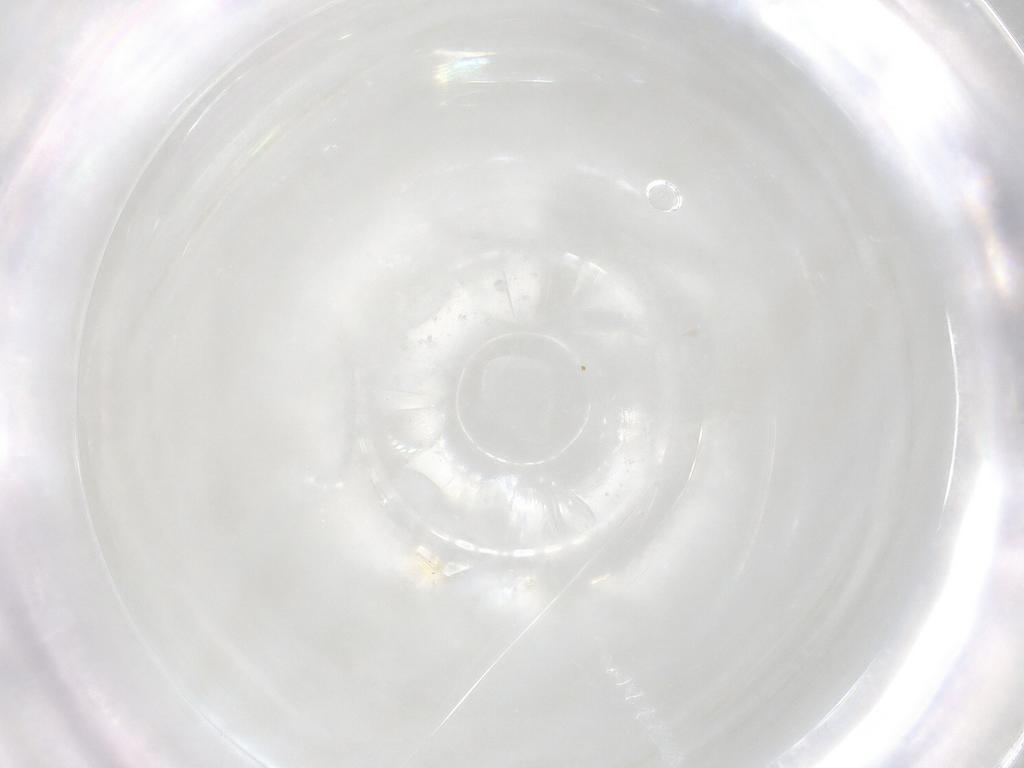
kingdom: Animalia
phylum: Arthropoda
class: Arachnida
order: Trombidiformes
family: Anystidae
